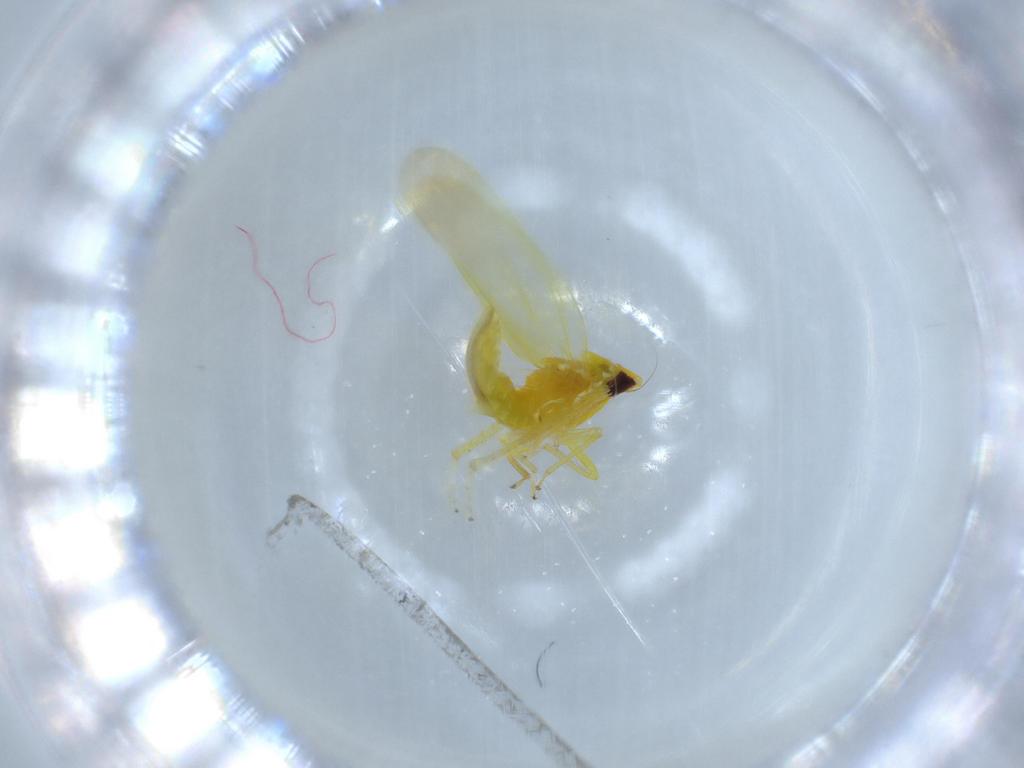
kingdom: Animalia
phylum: Arthropoda
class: Insecta
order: Hemiptera
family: Cicadellidae
